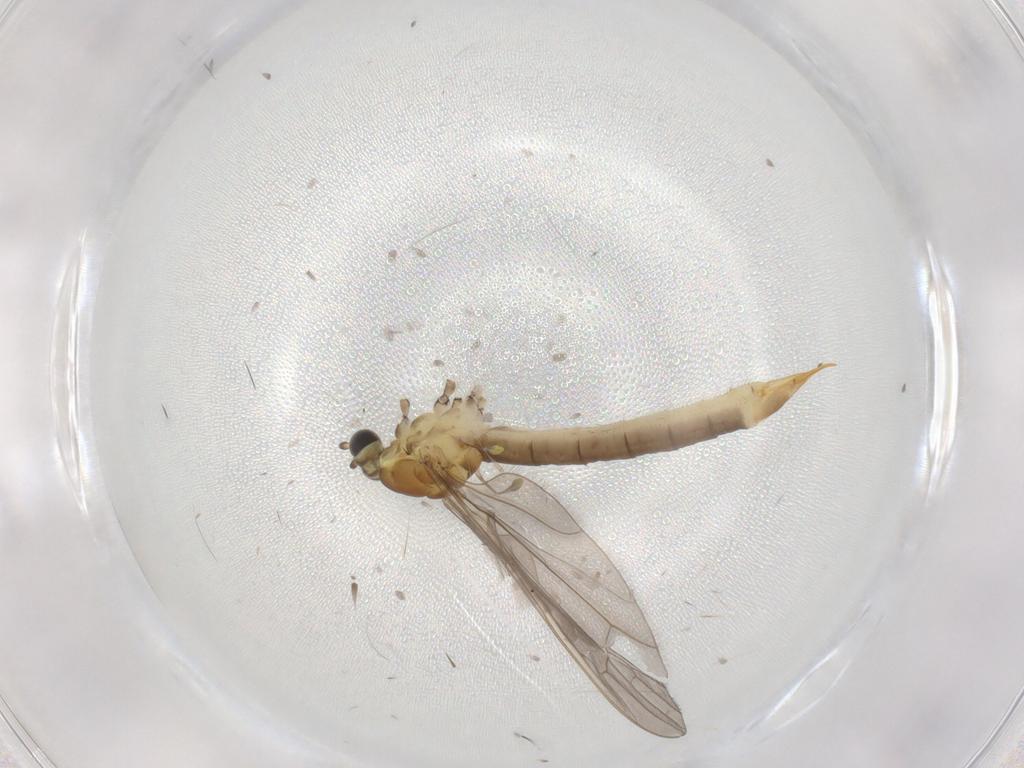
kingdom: Animalia
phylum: Arthropoda
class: Insecta
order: Diptera
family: Limoniidae
